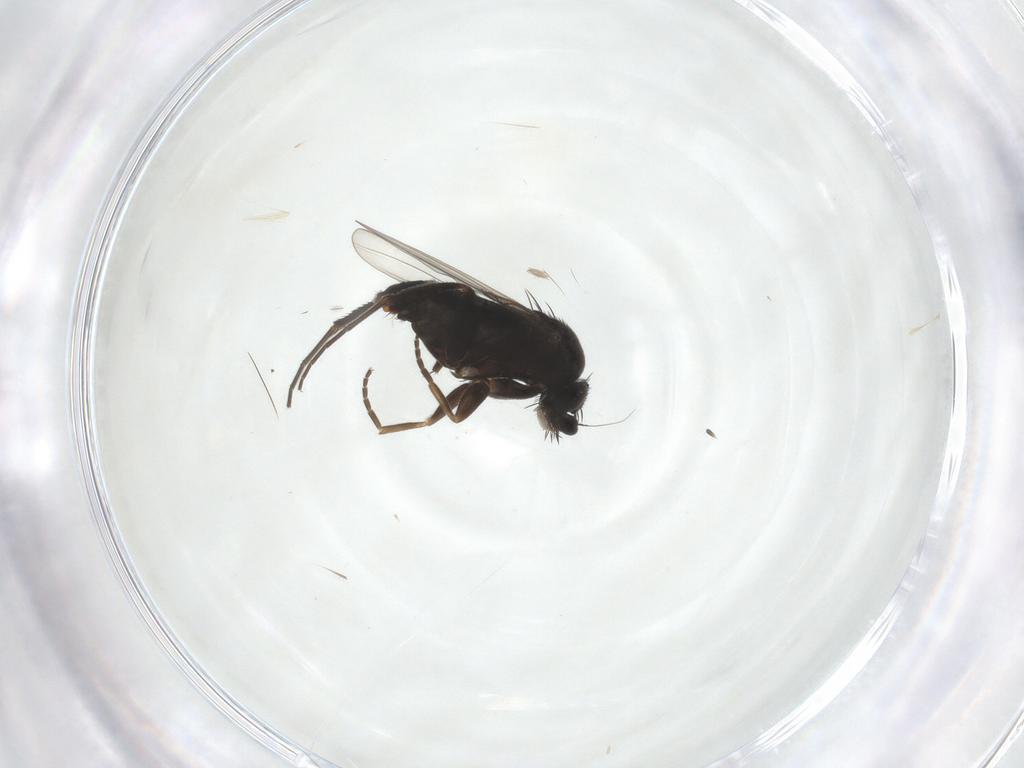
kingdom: Animalia
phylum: Arthropoda
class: Insecta
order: Diptera
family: Phoridae
